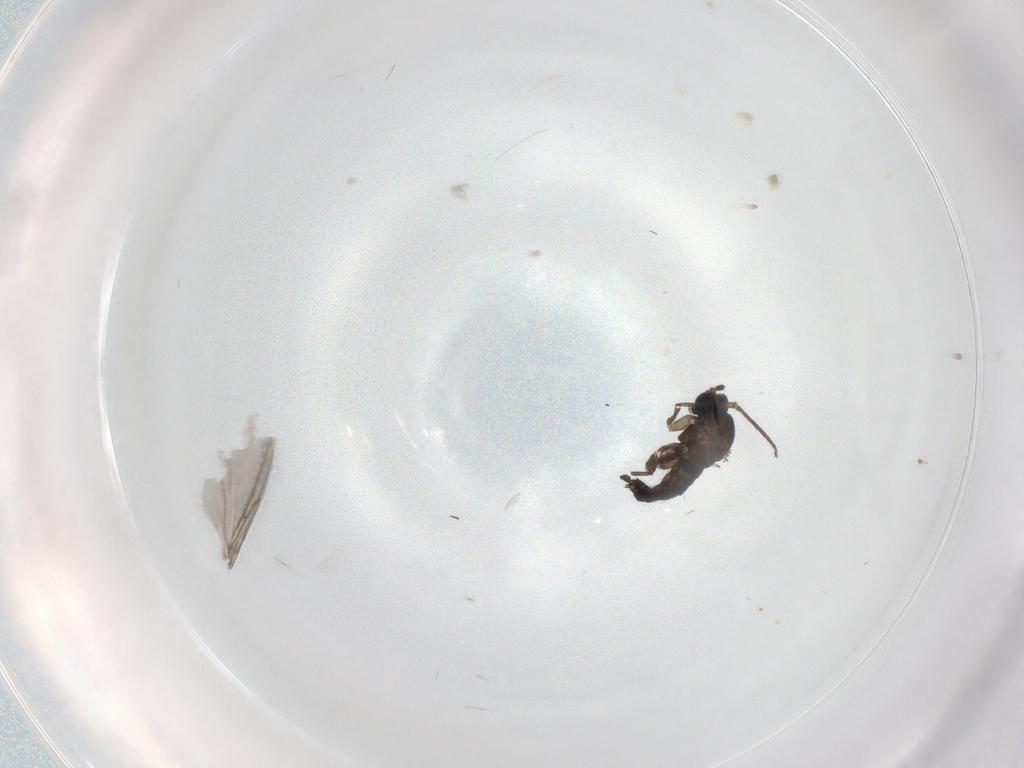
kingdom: Animalia
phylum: Arthropoda
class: Insecta
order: Diptera
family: Sciaridae
